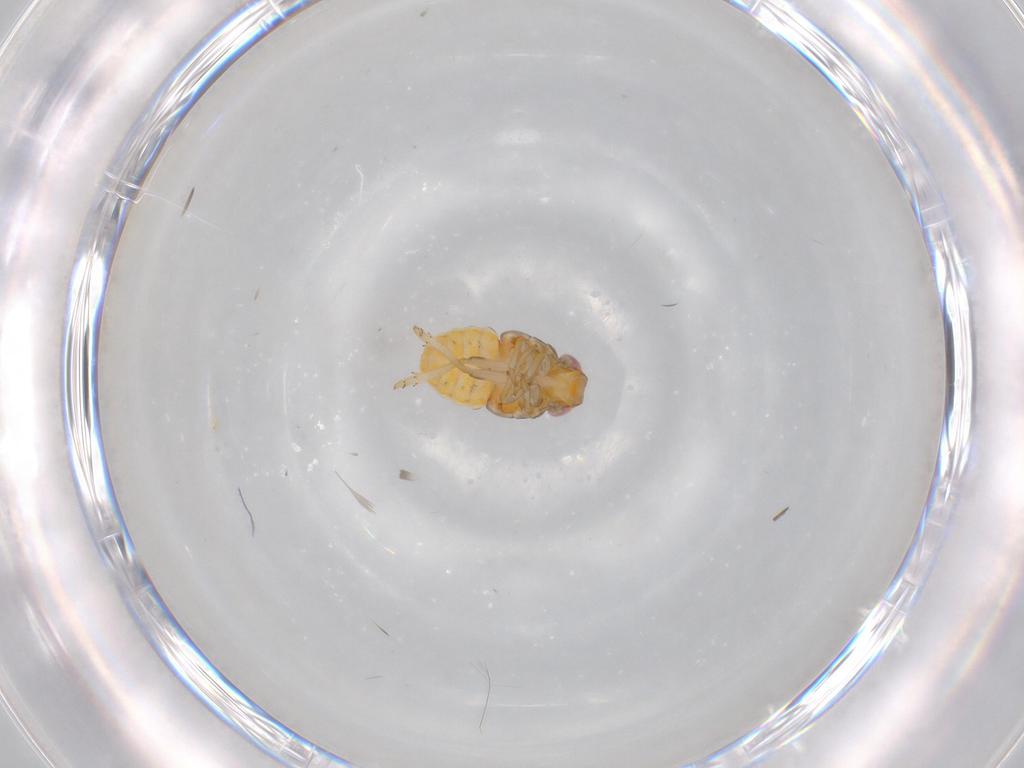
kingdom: Animalia
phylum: Arthropoda
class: Insecta
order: Hemiptera
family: Issidae
